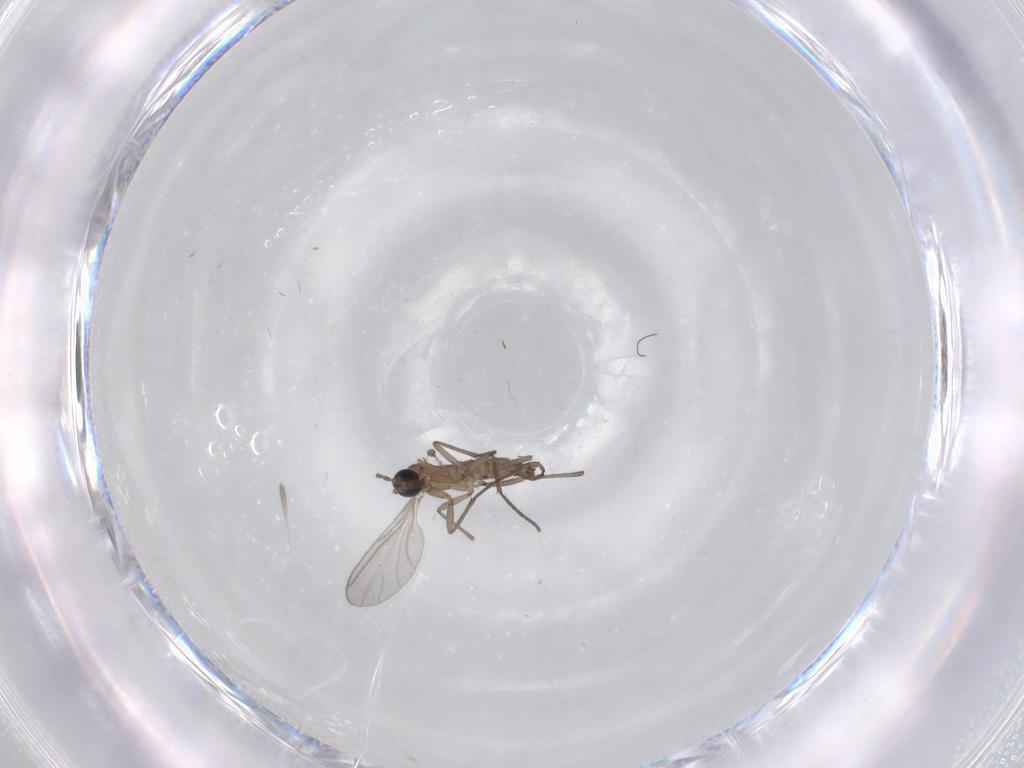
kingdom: Animalia
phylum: Arthropoda
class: Insecta
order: Diptera
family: Sciaridae
